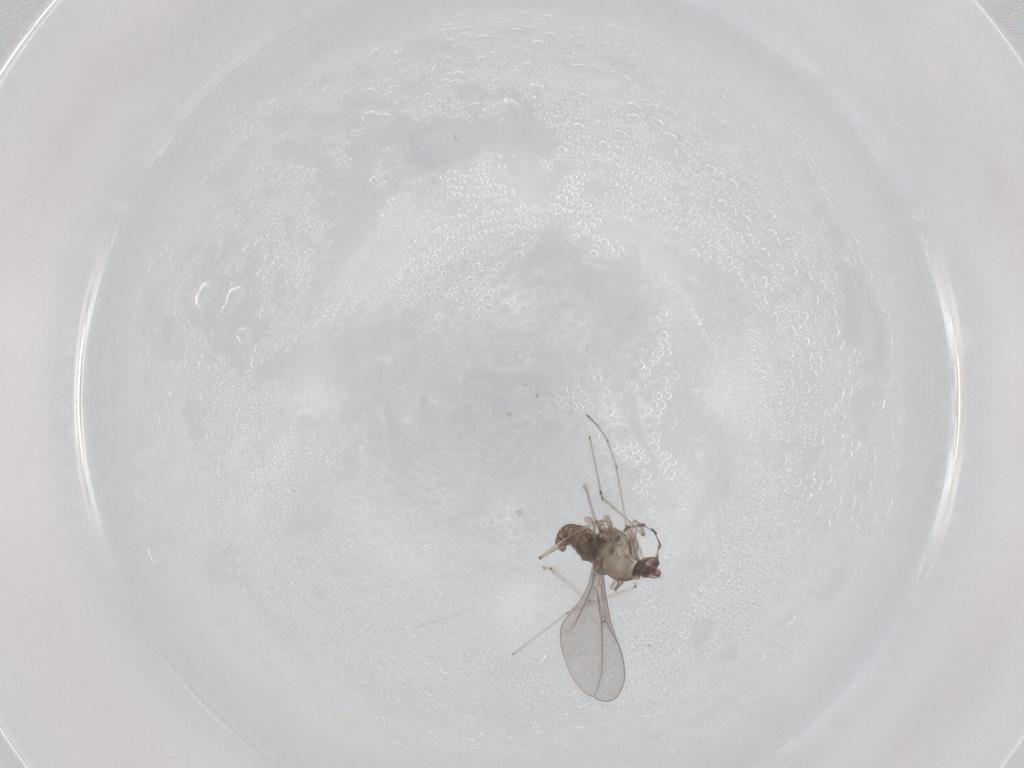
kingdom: Animalia
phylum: Arthropoda
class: Insecta
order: Diptera
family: Cecidomyiidae
